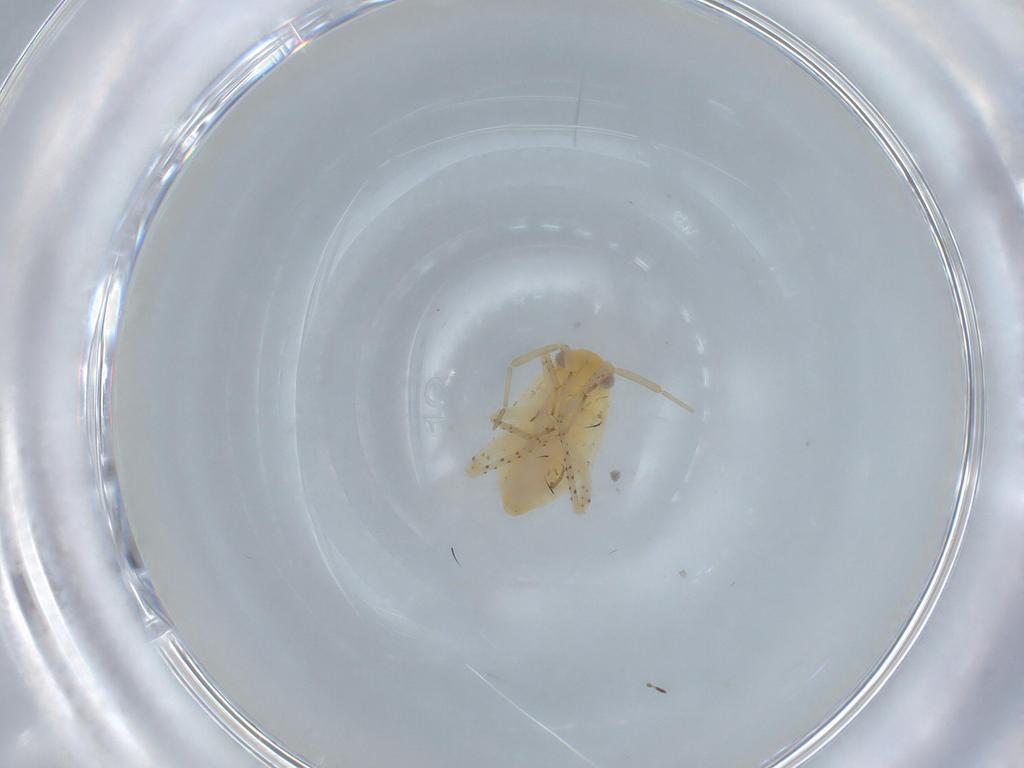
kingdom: Animalia
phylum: Arthropoda
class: Insecta
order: Hemiptera
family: Miridae
